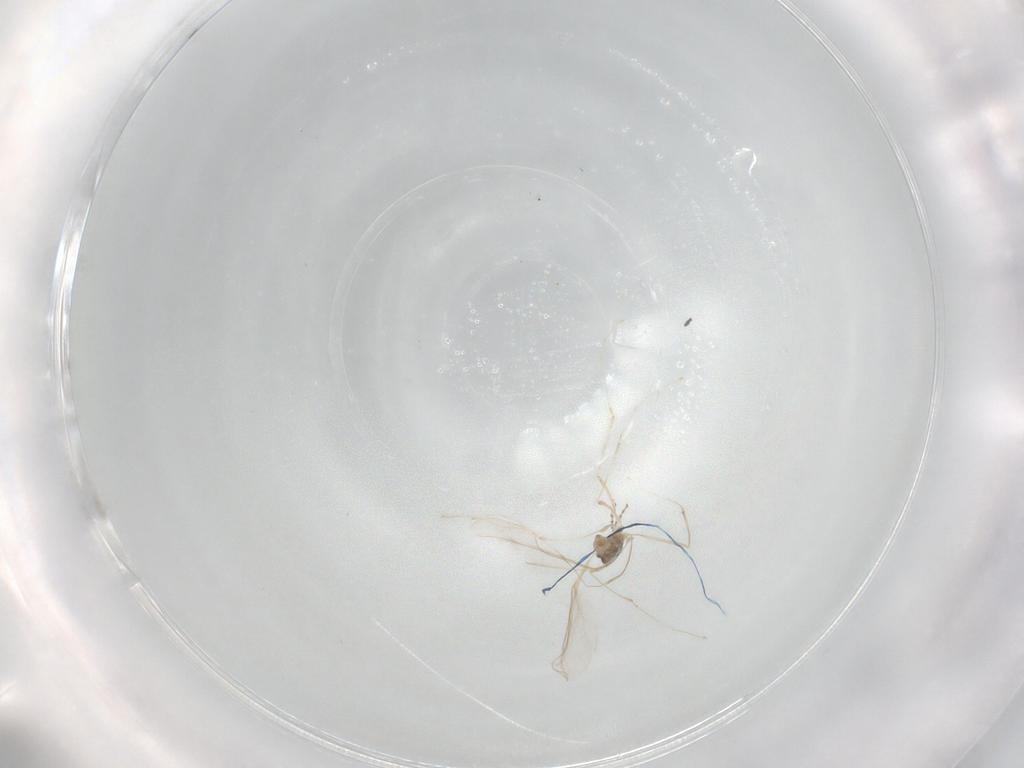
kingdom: Animalia
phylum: Arthropoda
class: Insecta
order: Diptera
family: Cecidomyiidae
